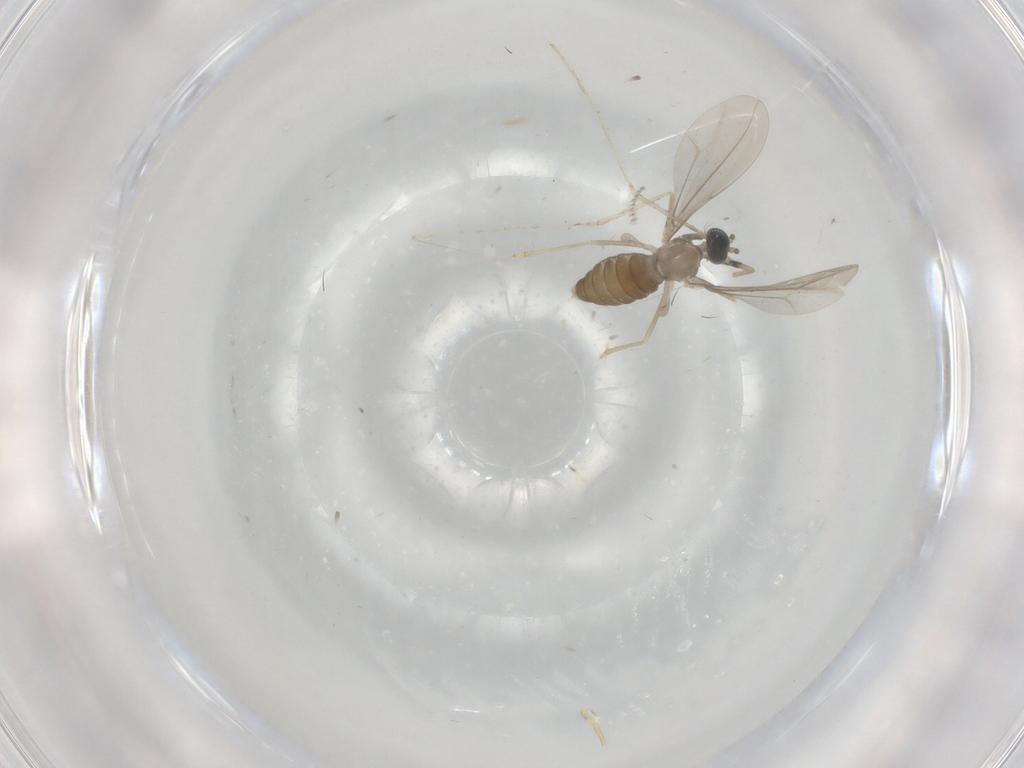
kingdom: Animalia
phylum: Arthropoda
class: Insecta
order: Diptera
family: Cecidomyiidae
